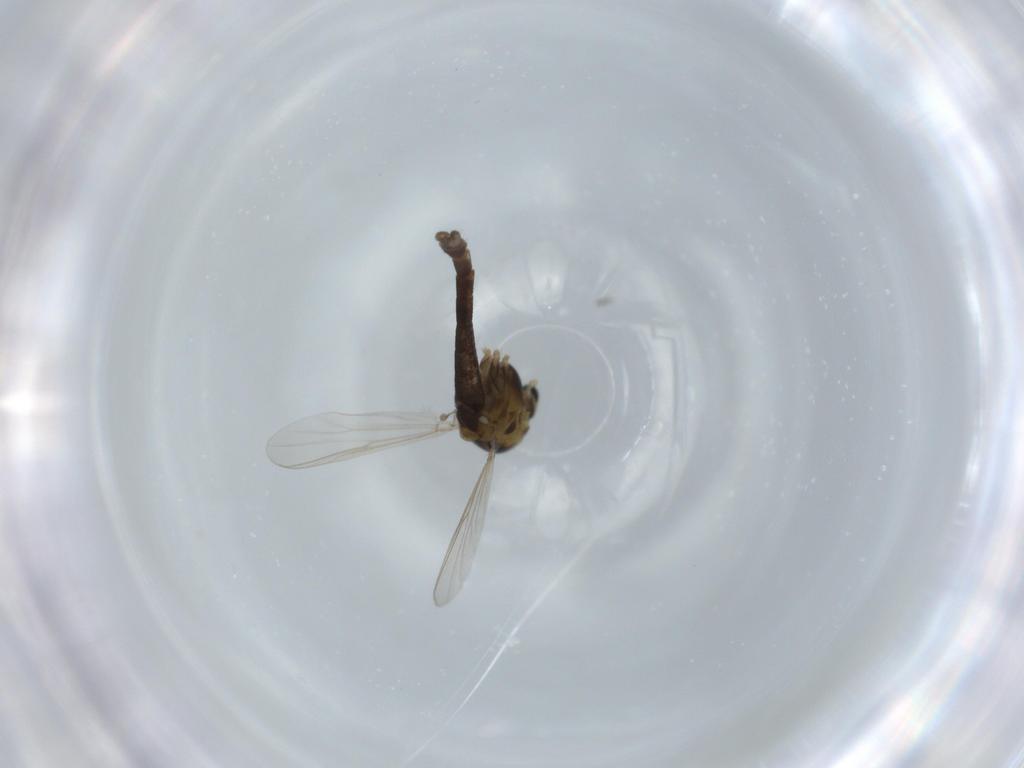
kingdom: Animalia
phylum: Arthropoda
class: Insecta
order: Diptera
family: Chironomidae
